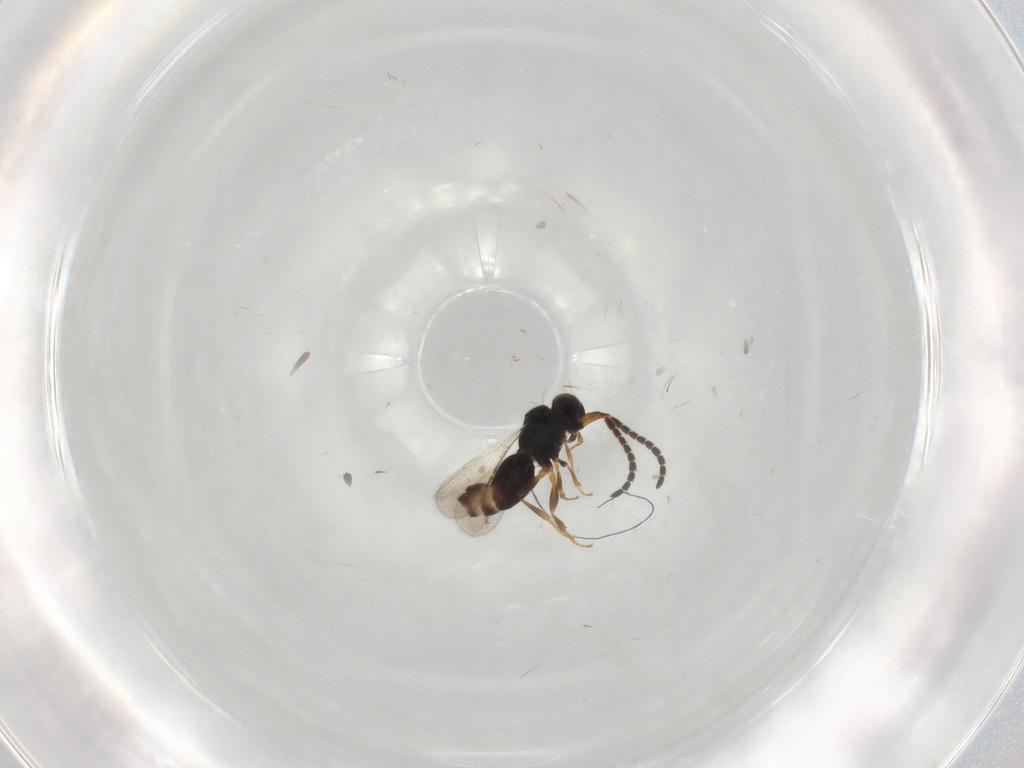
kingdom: Animalia
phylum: Arthropoda
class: Insecta
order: Hymenoptera
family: Ceraphronidae
